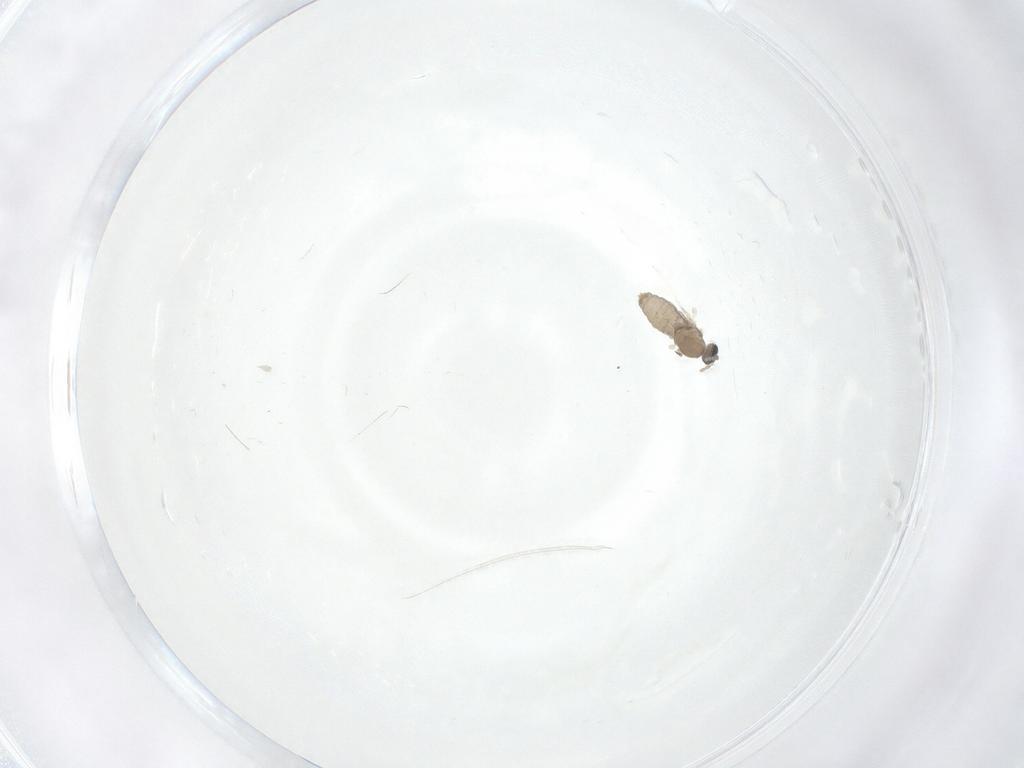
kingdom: Animalia
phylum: Arthropoda
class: Insecta
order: Diptera
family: Cecidomyiidae
